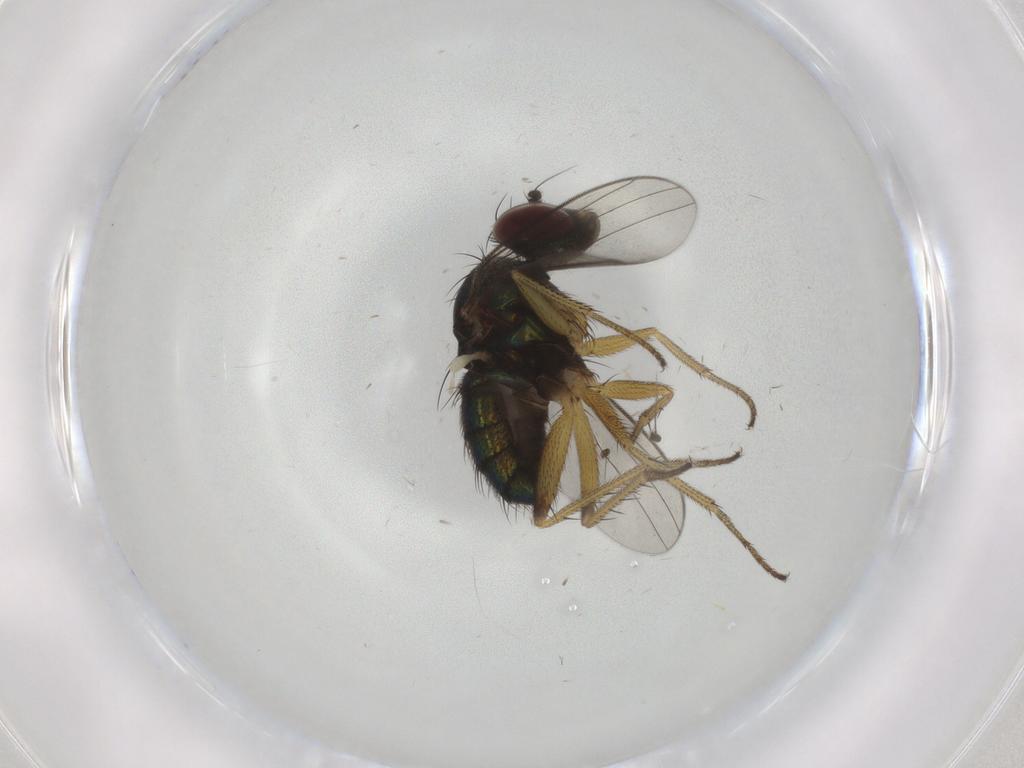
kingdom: Animalia
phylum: Arthropoda
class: Insecta
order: Diptera
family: Dolichopodidae
